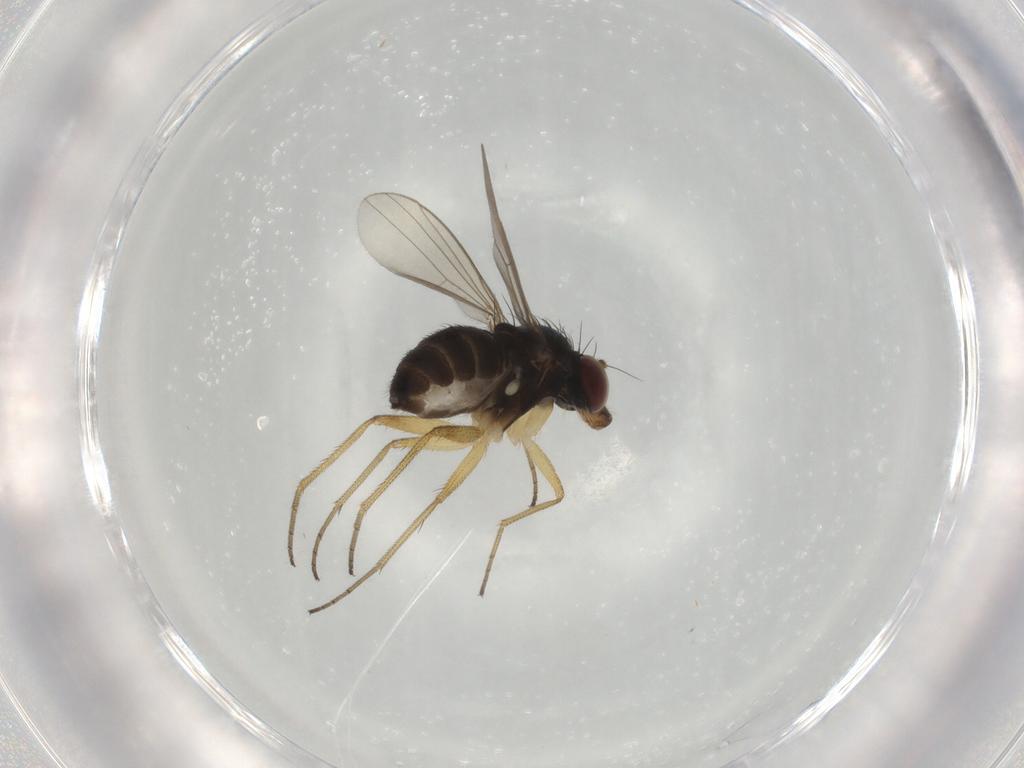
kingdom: Animalia
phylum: Arthropoda
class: Insecta
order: Diptera
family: Dolichopodidae
